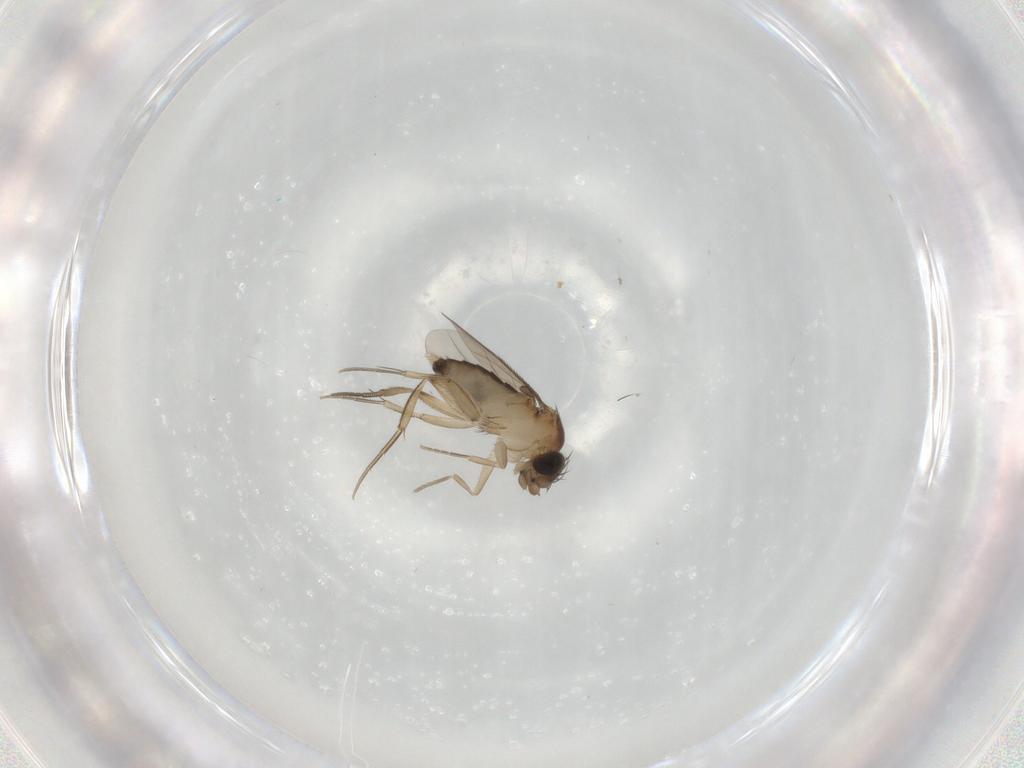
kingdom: Animalia
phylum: Arthropoda
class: Insecta
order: Diptera
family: Phoridae
